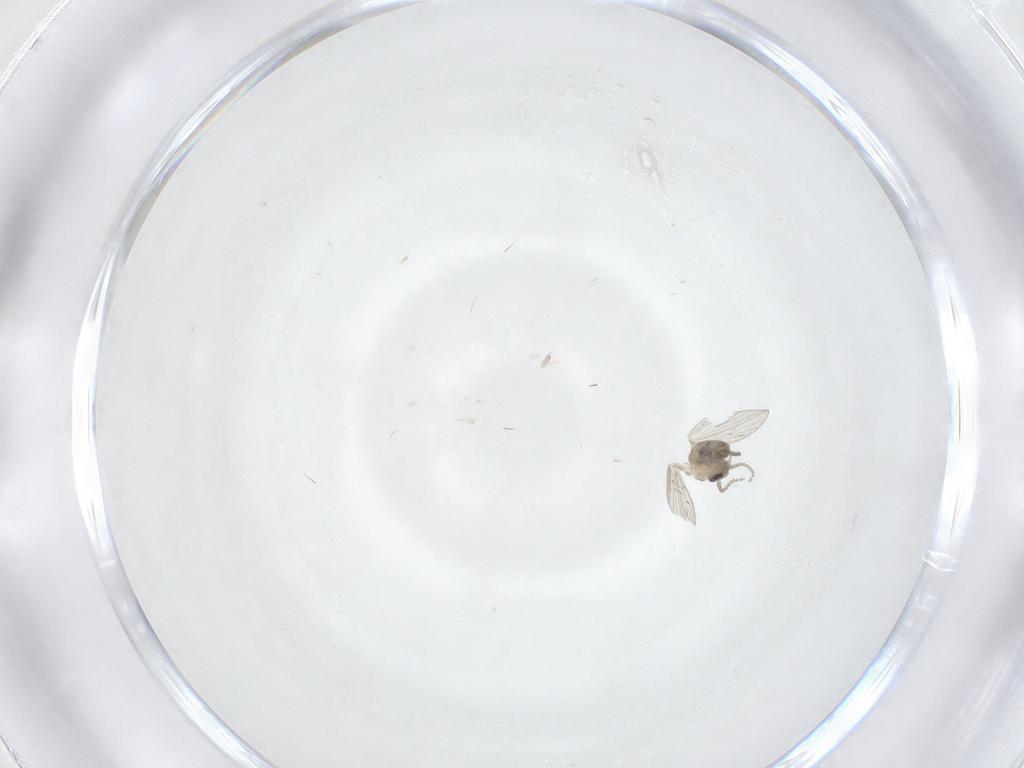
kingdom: Animalia
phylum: Arthropoda
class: Insecta
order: Diptera
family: Psychodidae
